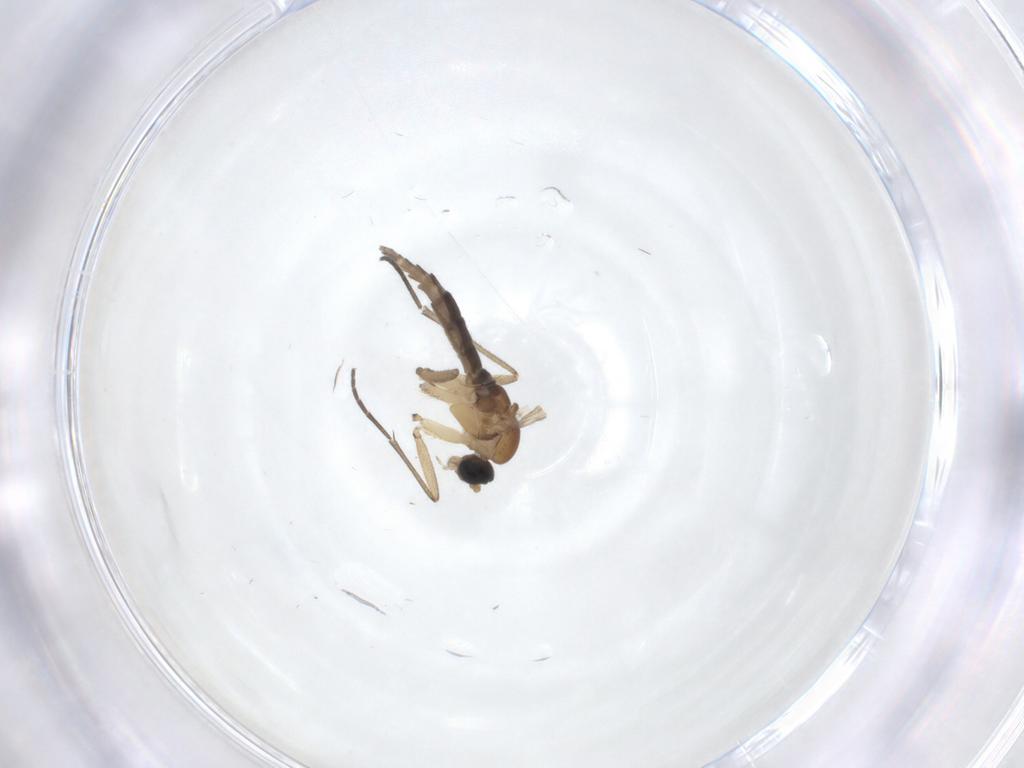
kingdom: Animalia
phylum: Arthropoda
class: Insecta
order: Diptera
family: Sciaridae
